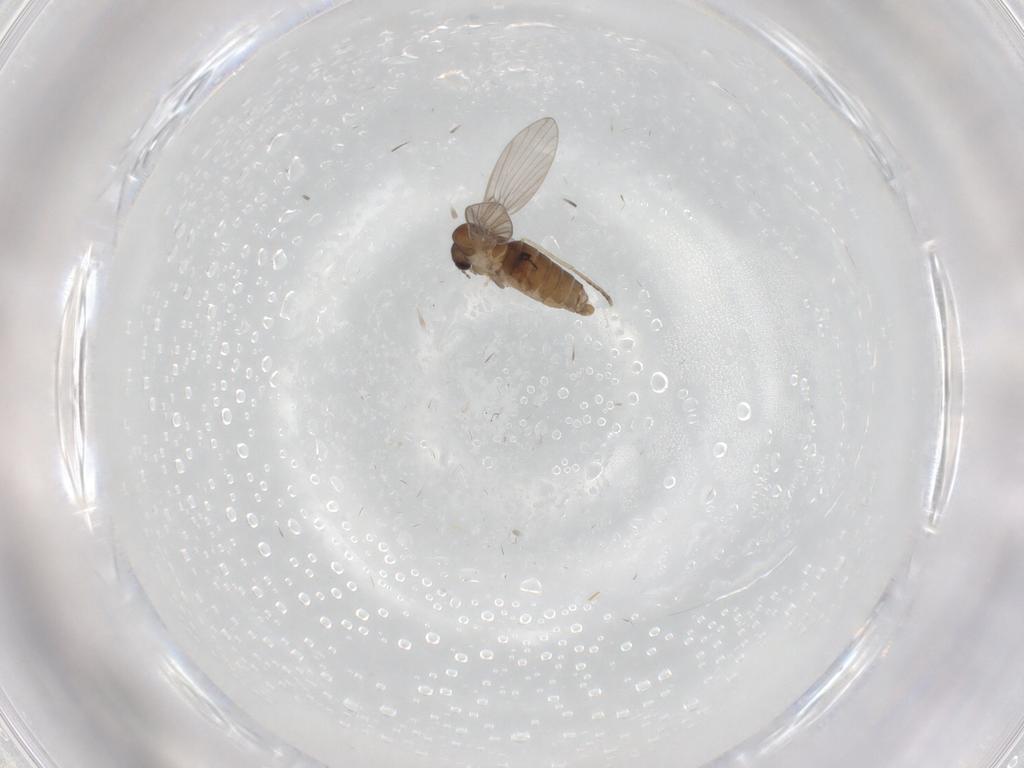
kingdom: Animalia
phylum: Arthropoda
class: Insecta
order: Diptera
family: Ceratopogonidae
